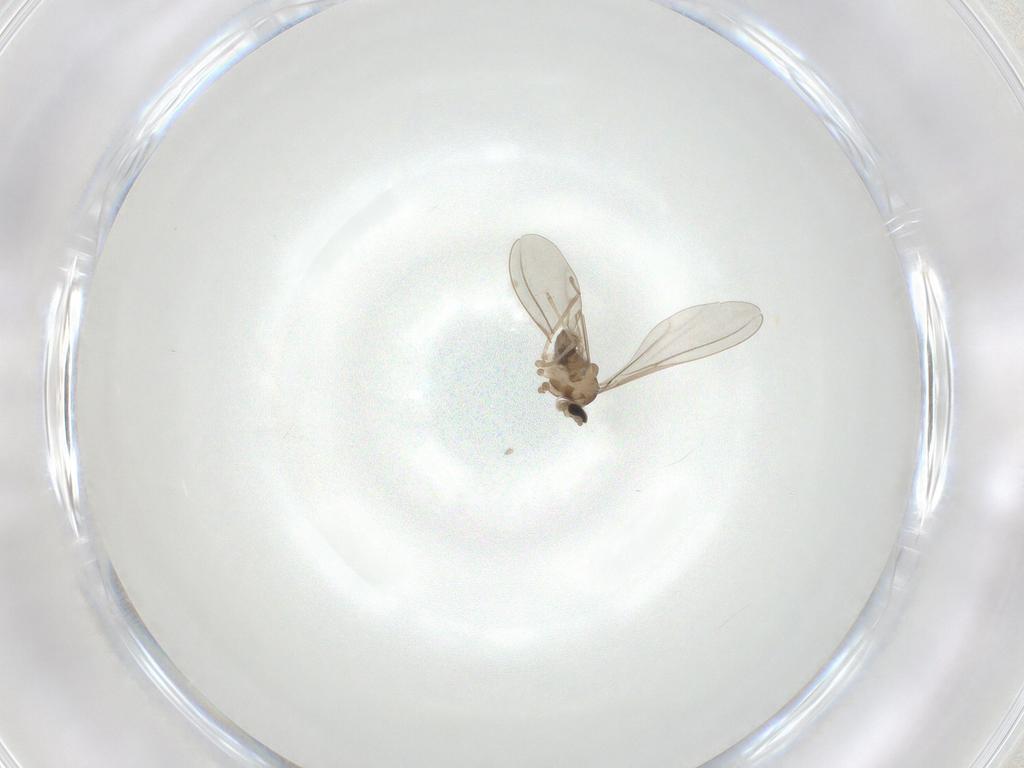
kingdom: Animalia
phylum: Arthropoda
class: Insecta
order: Diptera
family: Cecidomyiidae
